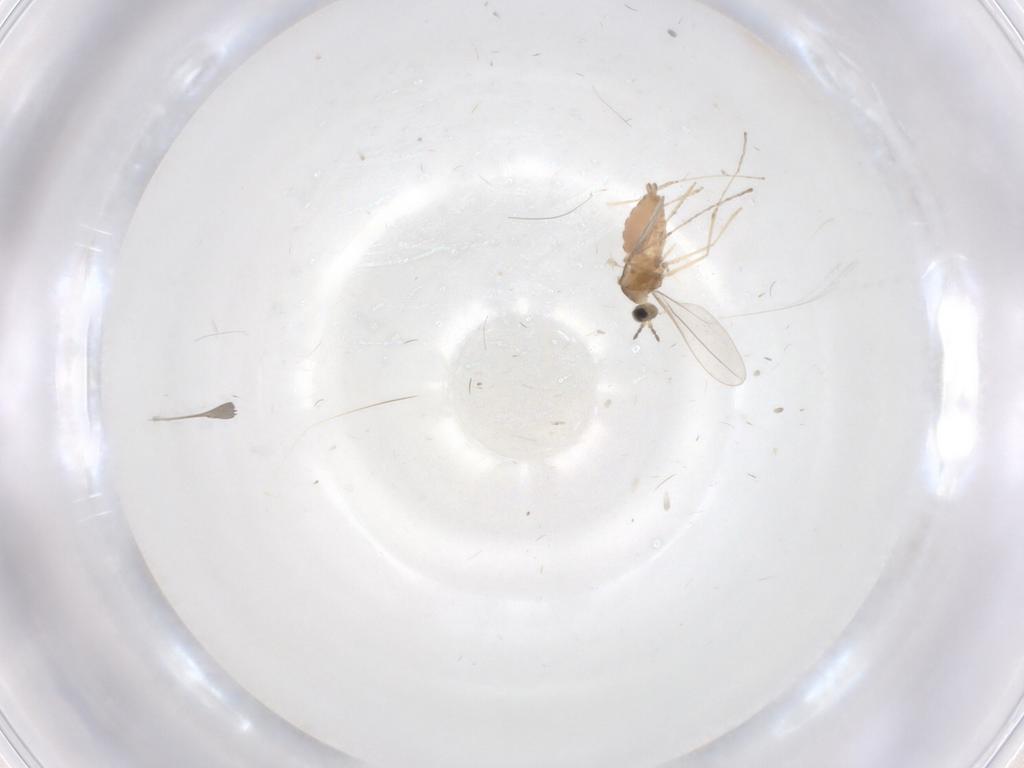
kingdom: Animalia
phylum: Arthropoda
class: Insecta
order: Diptera
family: Cecidomyiidae
